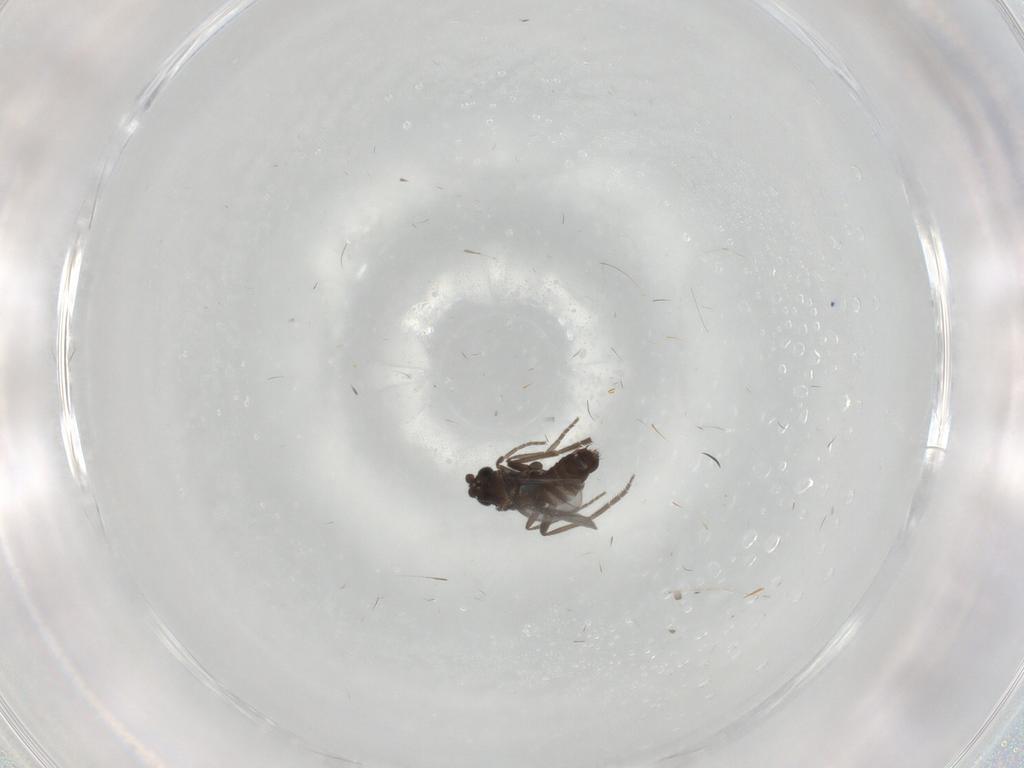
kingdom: Animalia
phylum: Arthropoda
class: Insecta
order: Diptera
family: Phoridae
